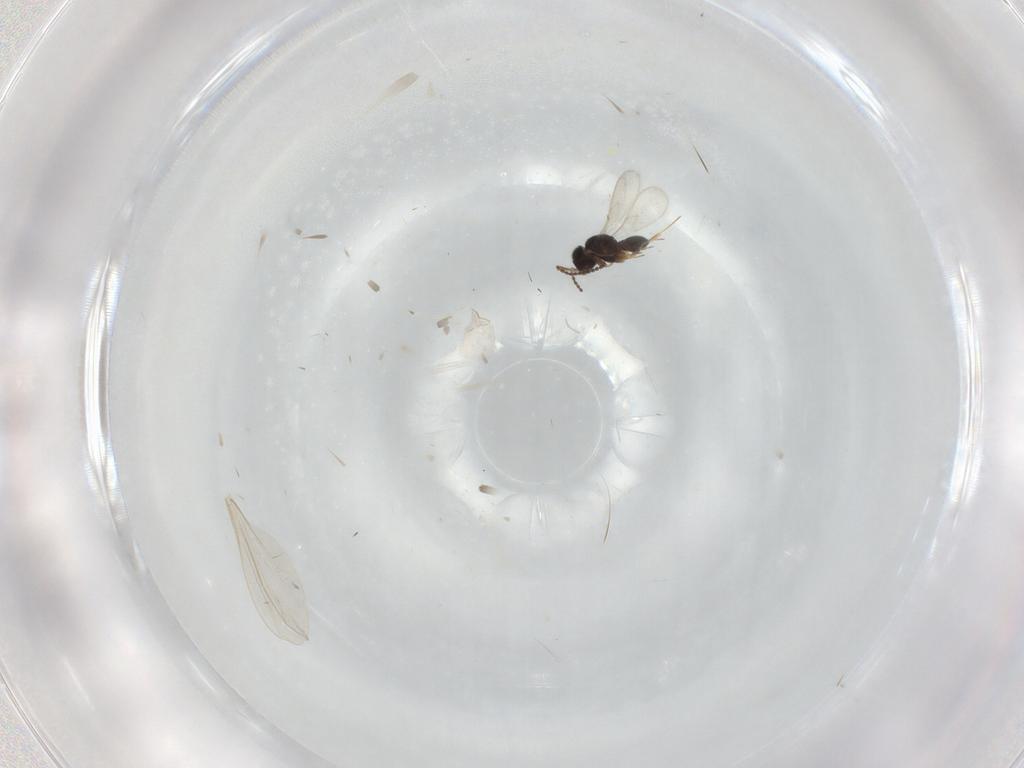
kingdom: Animalia
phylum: Arthropoda
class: Insecta
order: Hymenoptera
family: Scelionidae
